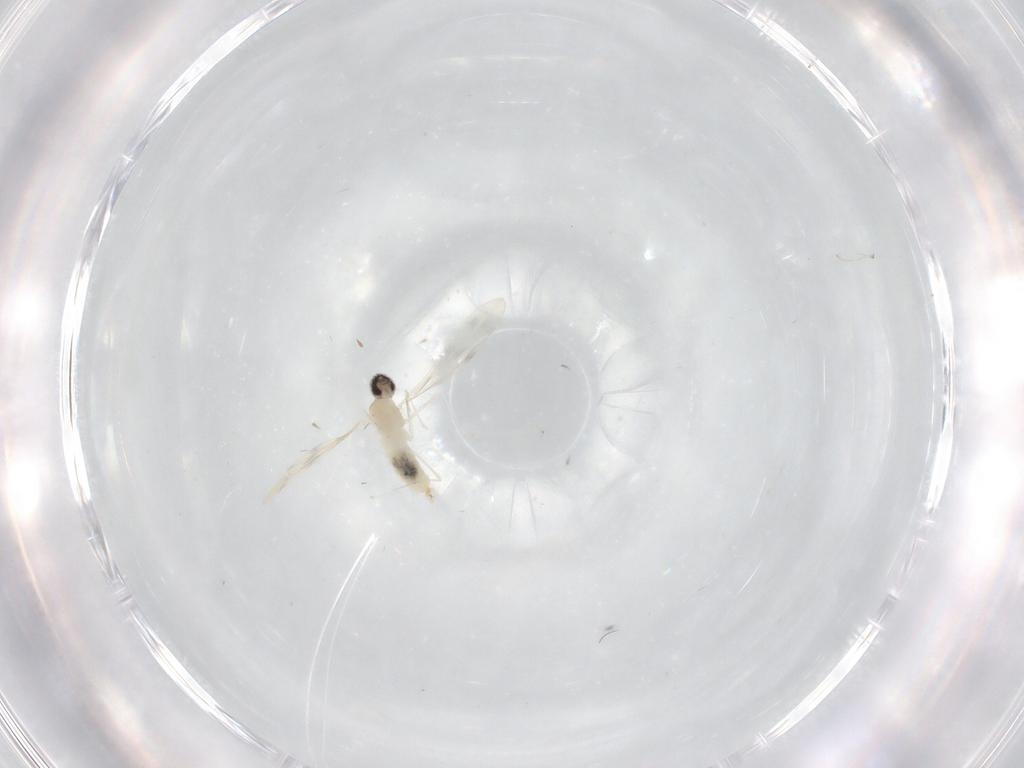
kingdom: Animalia
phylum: Arthropoda
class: Insecta
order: Diptera
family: Cecidomyiidae
